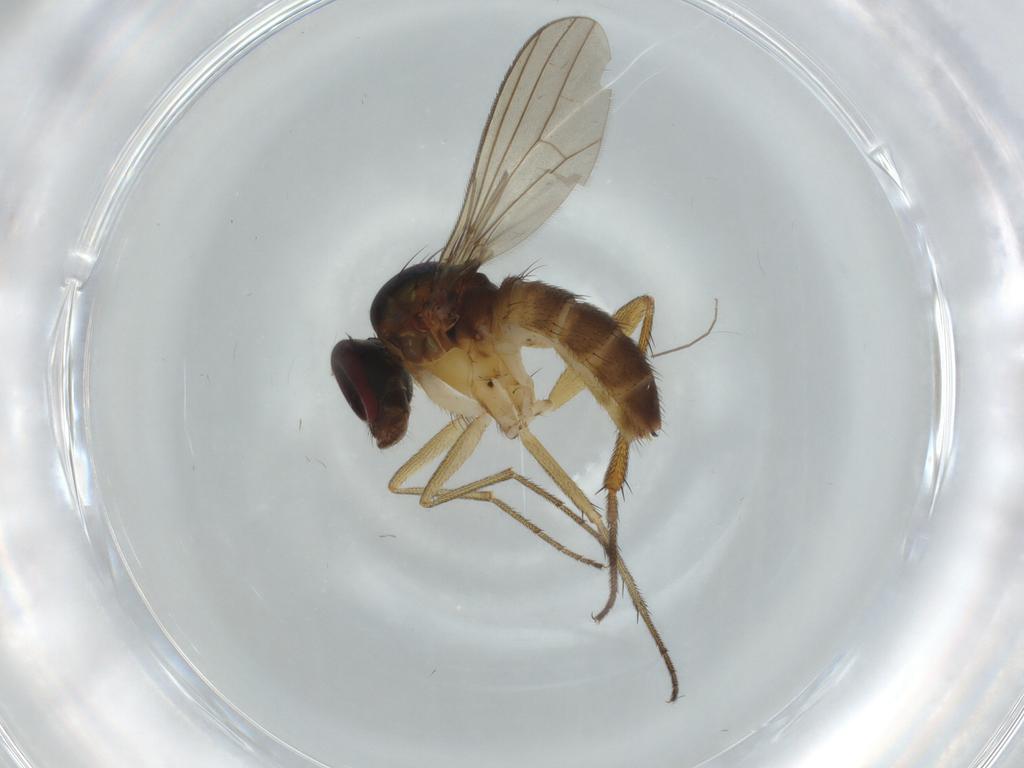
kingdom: Animalia
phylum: Arthropoda
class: Insecta
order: Diptera
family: Dolichopodidae
